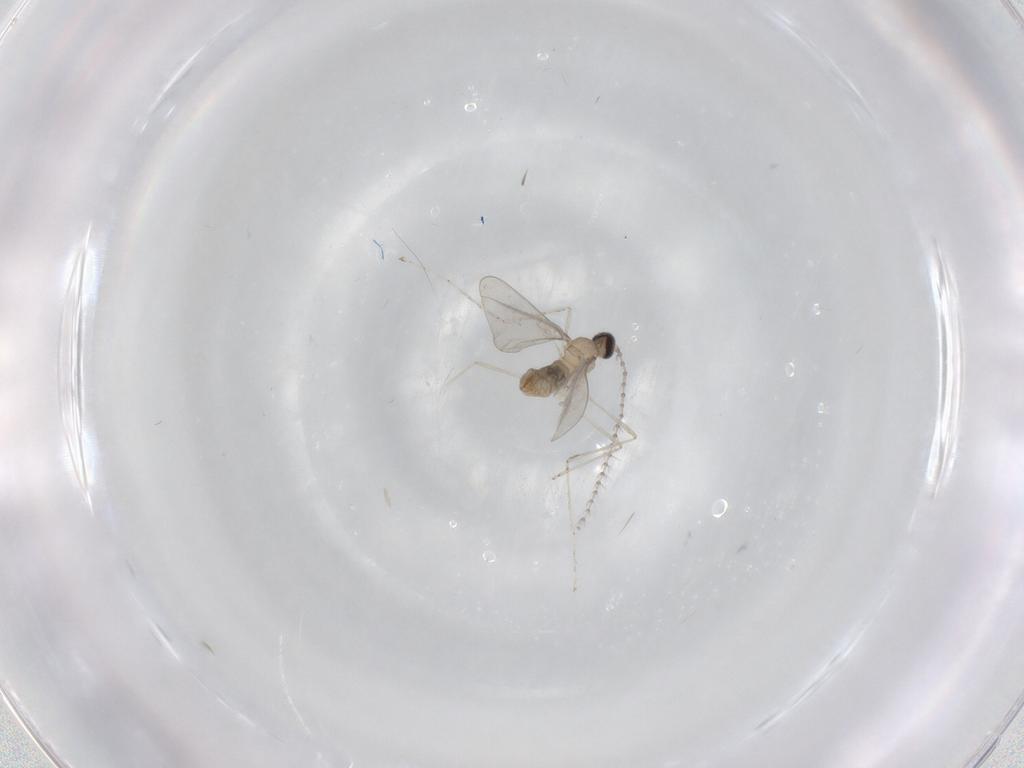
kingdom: Animalia
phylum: Arthropoda
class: Insecta
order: Diptera
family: Cecidomyiidae
